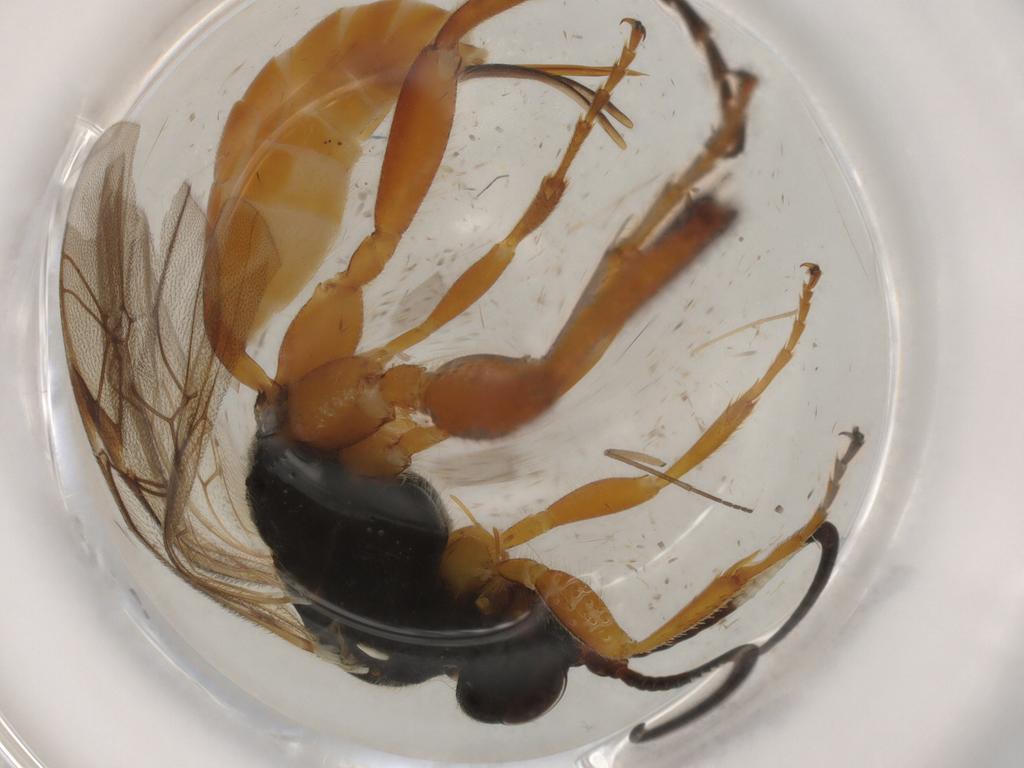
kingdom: Animalia
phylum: Arthropoda
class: Insecta
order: Hymenoptera
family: Ichneumonidae
